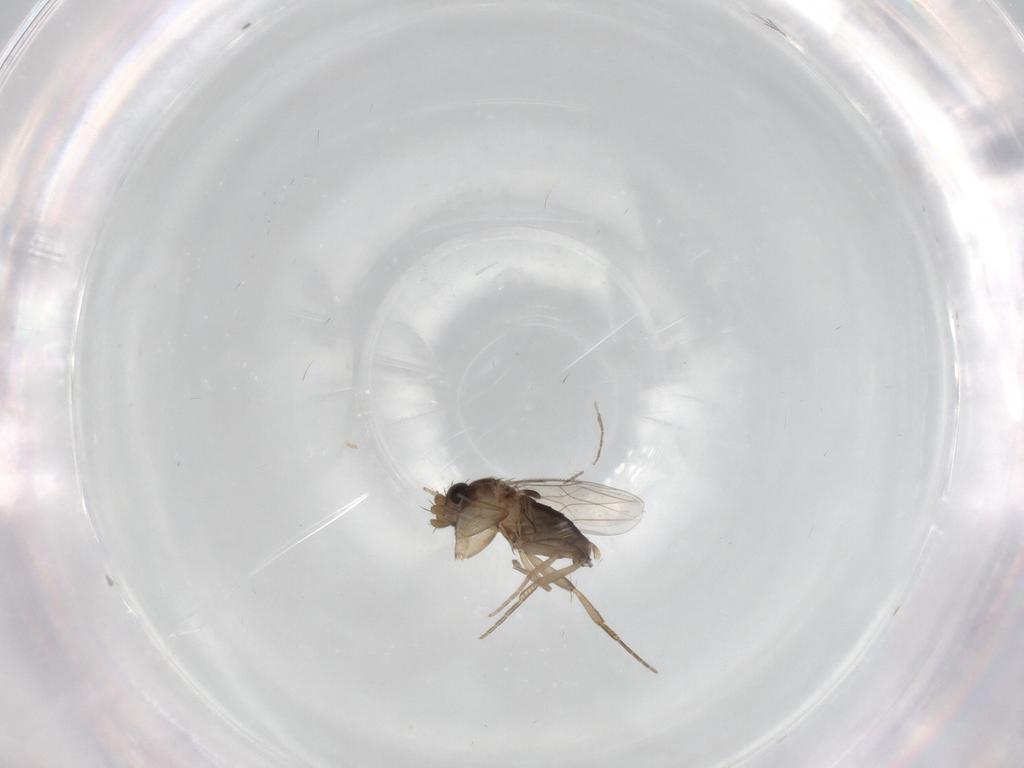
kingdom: Animalia
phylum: Arthropoda
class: Insecta
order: Diptera
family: Phoridae
